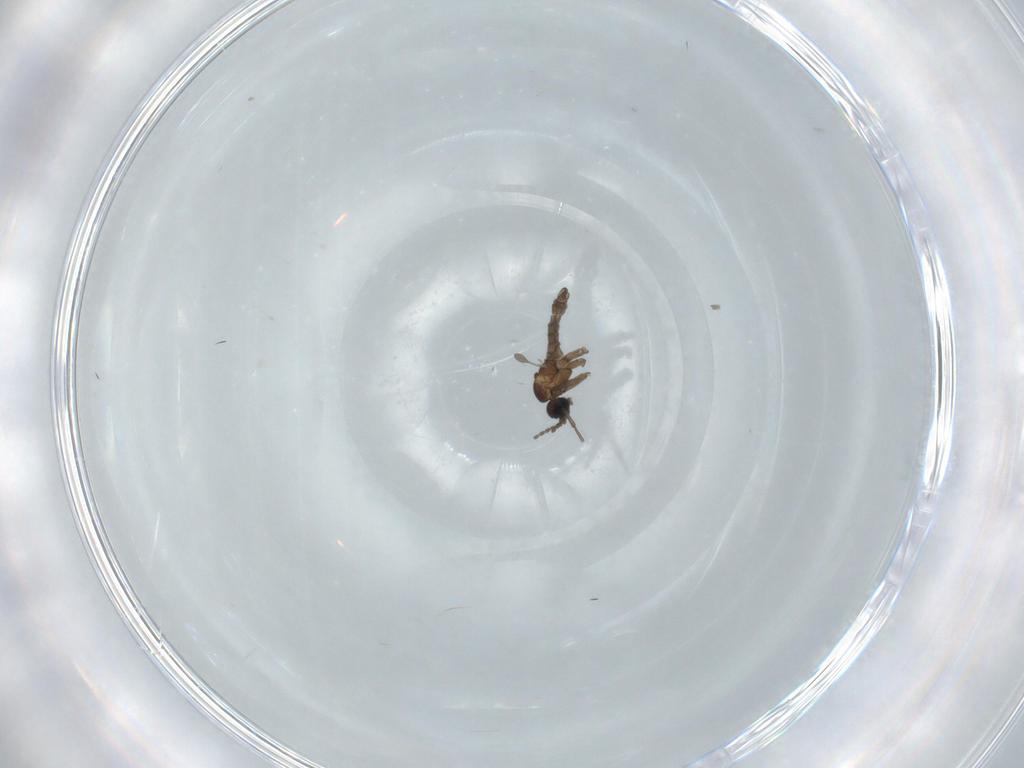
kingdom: Animalia
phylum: Arthropoda
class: Insecta
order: Diptera
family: Sciaridae
